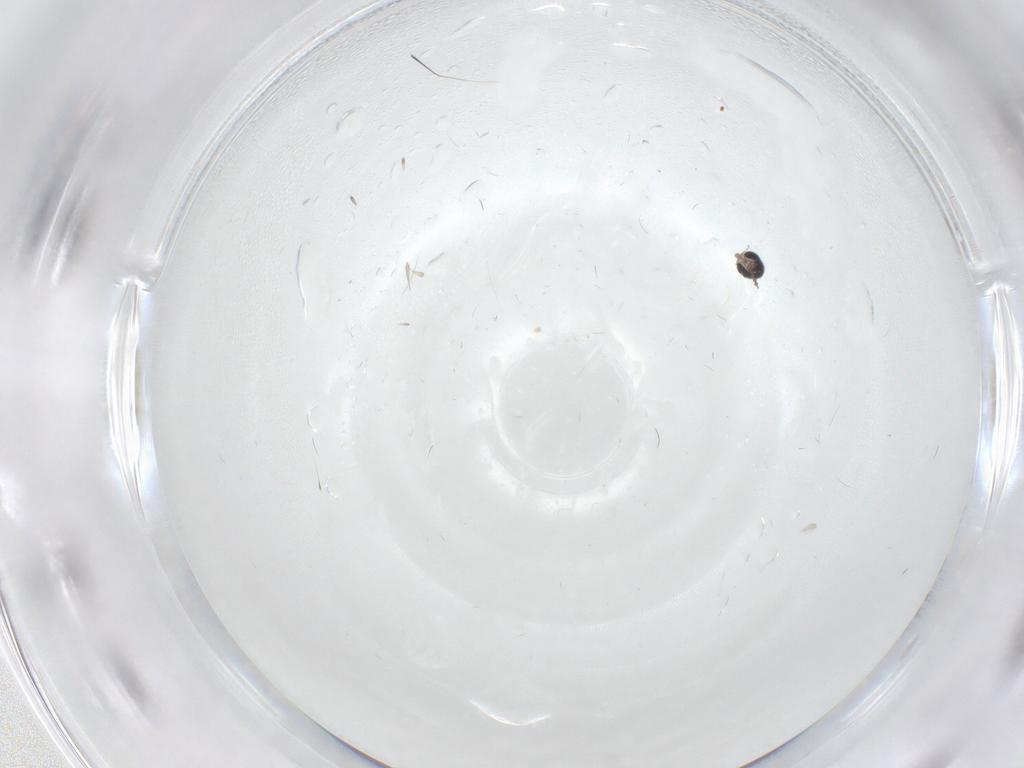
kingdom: Animalia
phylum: Arthropoda
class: Insecta
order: Diptera
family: Cecidomyiidae
